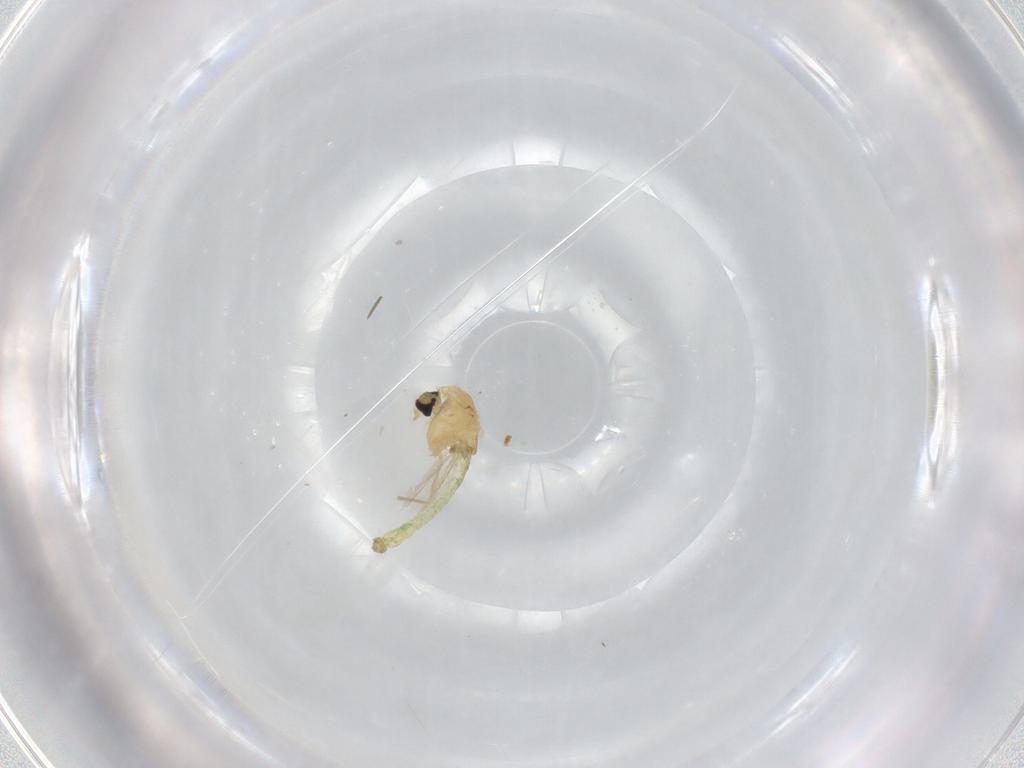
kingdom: Animalia
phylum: Arthropoda
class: Insecta
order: Diptera
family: Chironomidae
